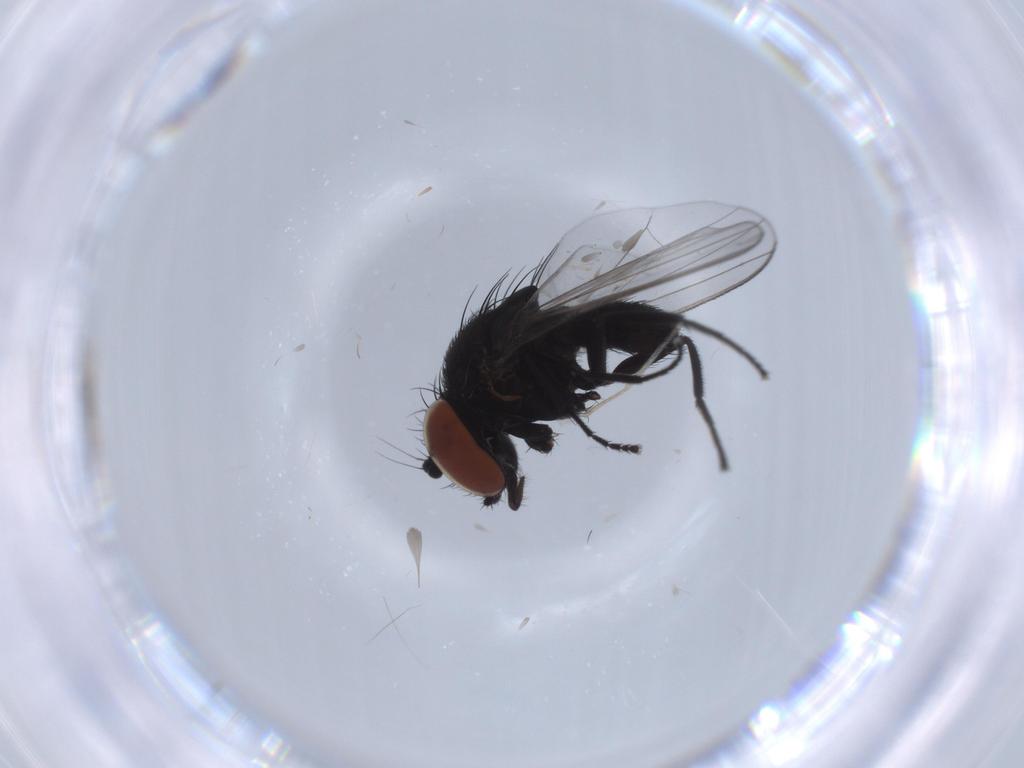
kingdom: Animalia
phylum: Arthropoda
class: Insecta
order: Diptera
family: Milichiidae
